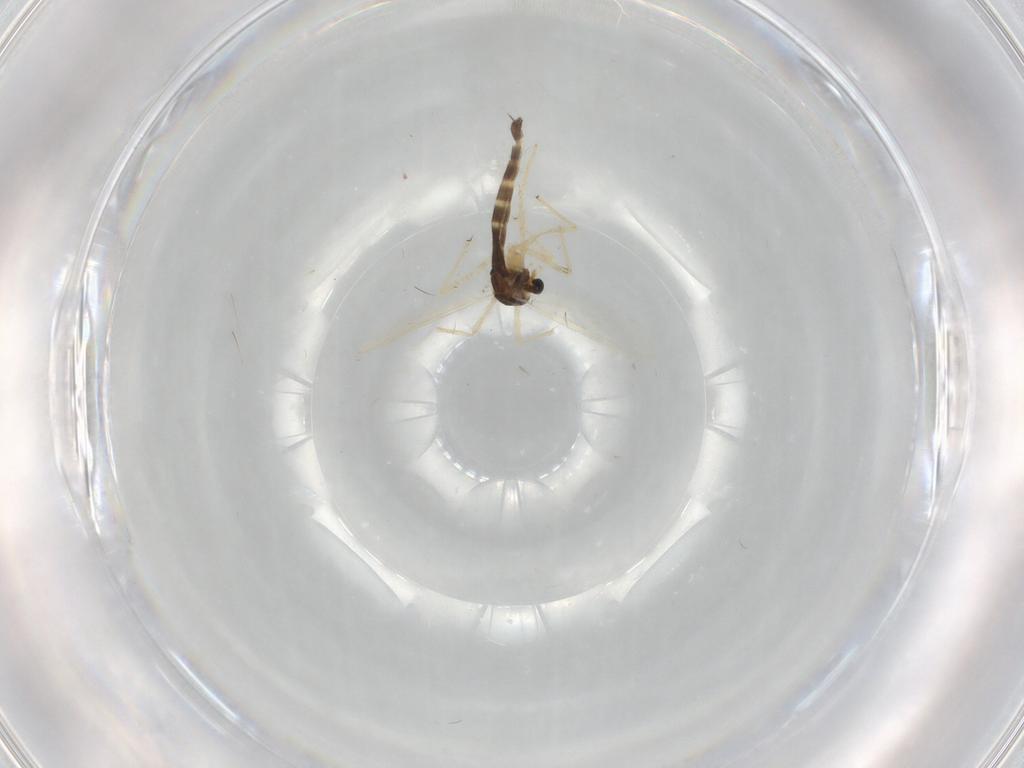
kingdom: Animalia
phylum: Arthropoda
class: Insecta
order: Diptera
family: Chironomidae
